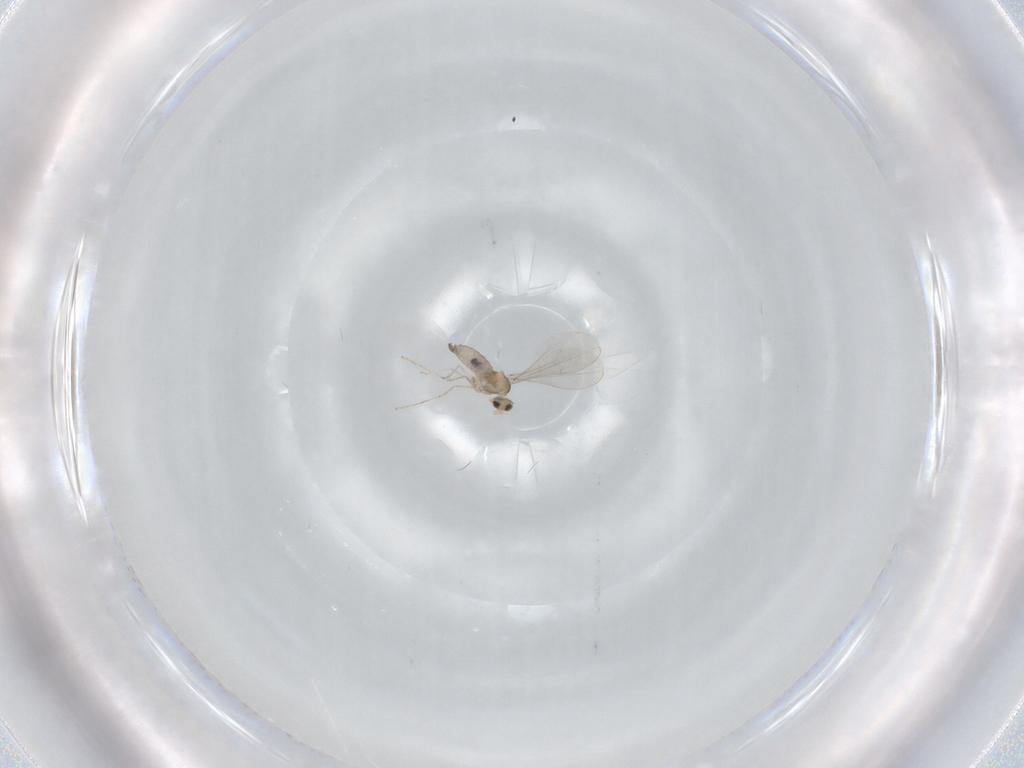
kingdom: Animalia
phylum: Arthropoda
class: Insecta
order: Diptera
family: Cecidomyiidae
